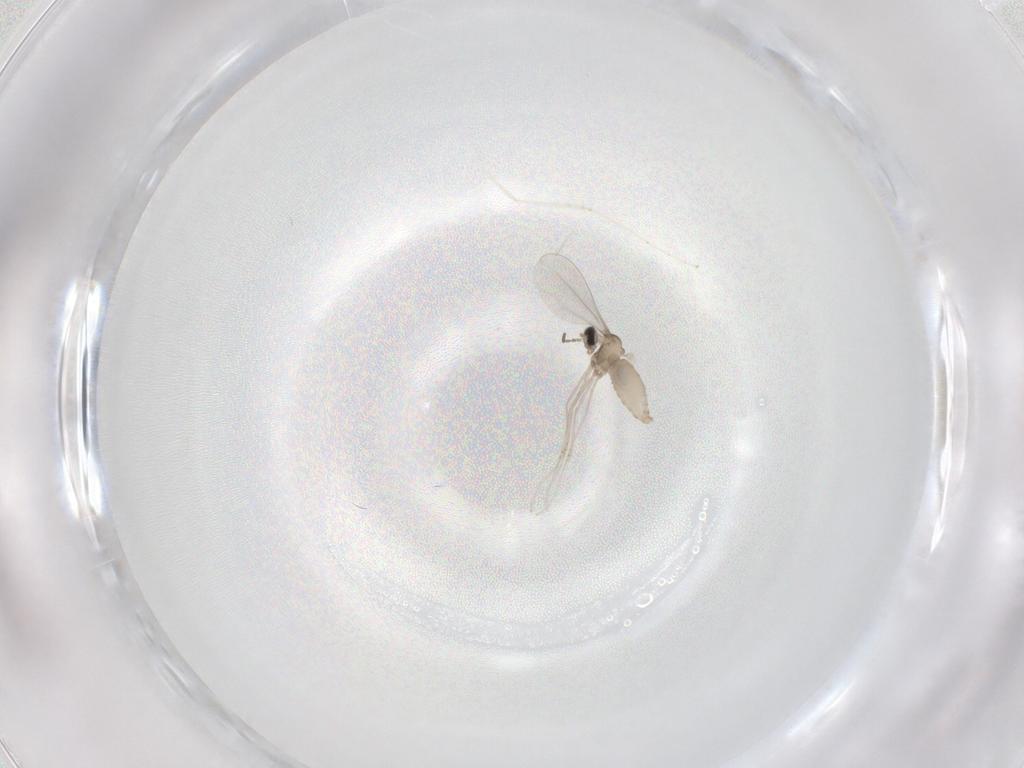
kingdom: Animalia
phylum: Arthropoda
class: Insecta
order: Diptera
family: Cecidomyiidae
